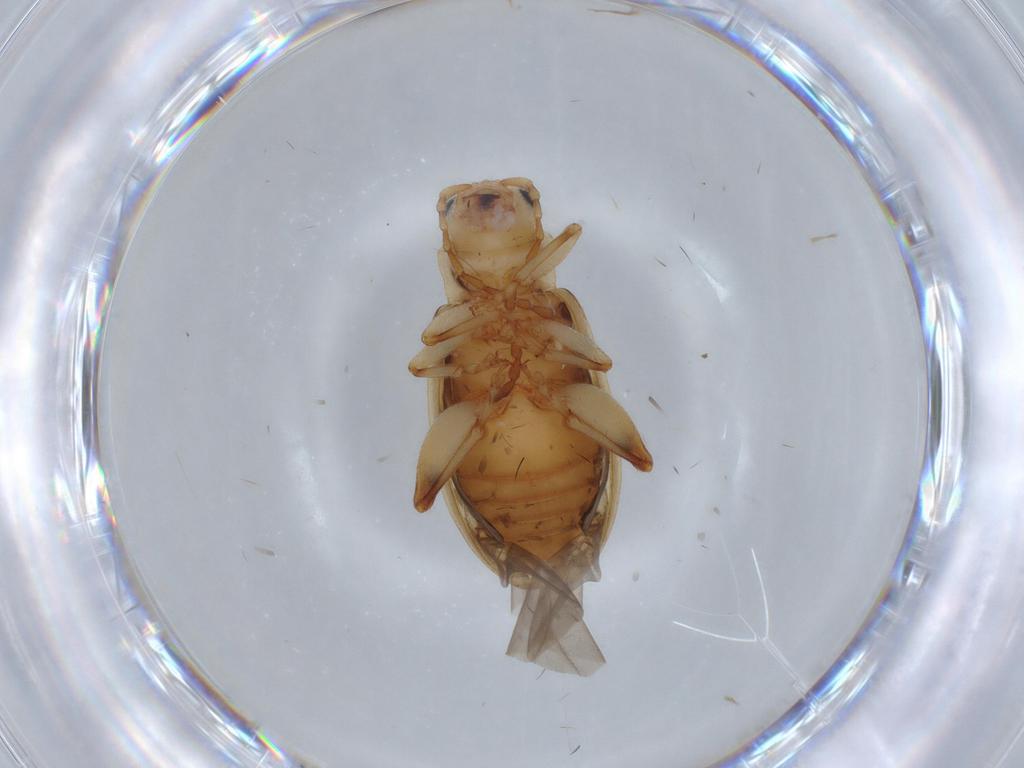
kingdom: Animalia
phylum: Arthropoda
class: Insecta
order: Coleoptera
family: Chrysomelidae
